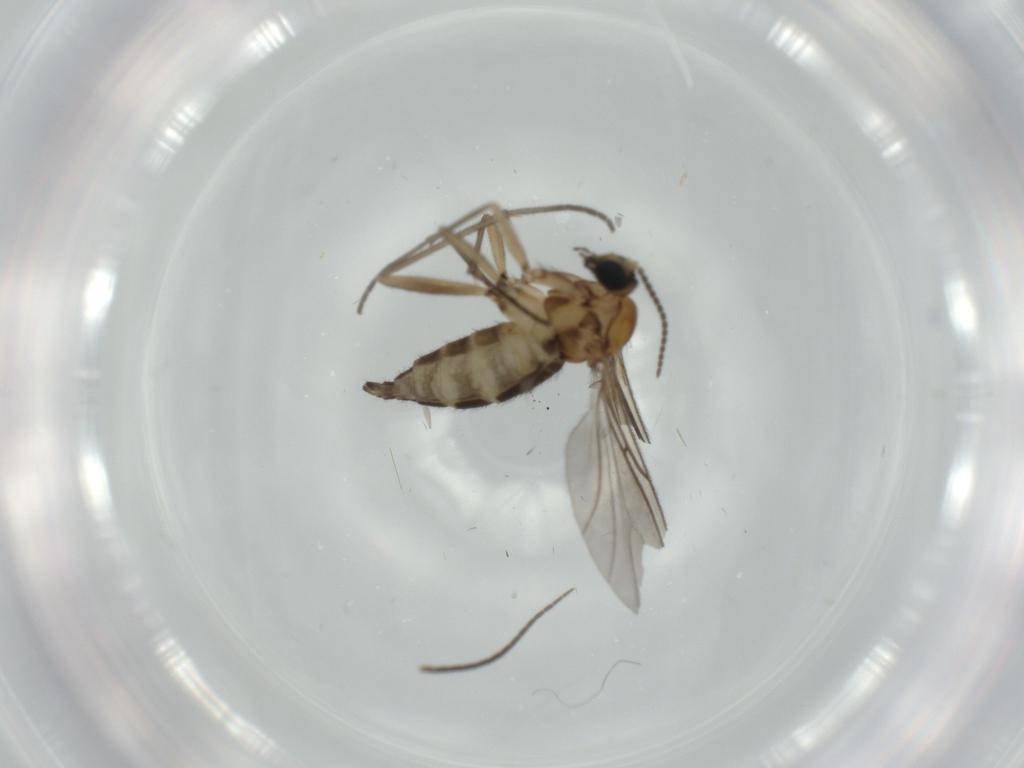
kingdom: Animalia
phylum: Arthropoda
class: Insecta
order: Diptera
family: Sciaridae
